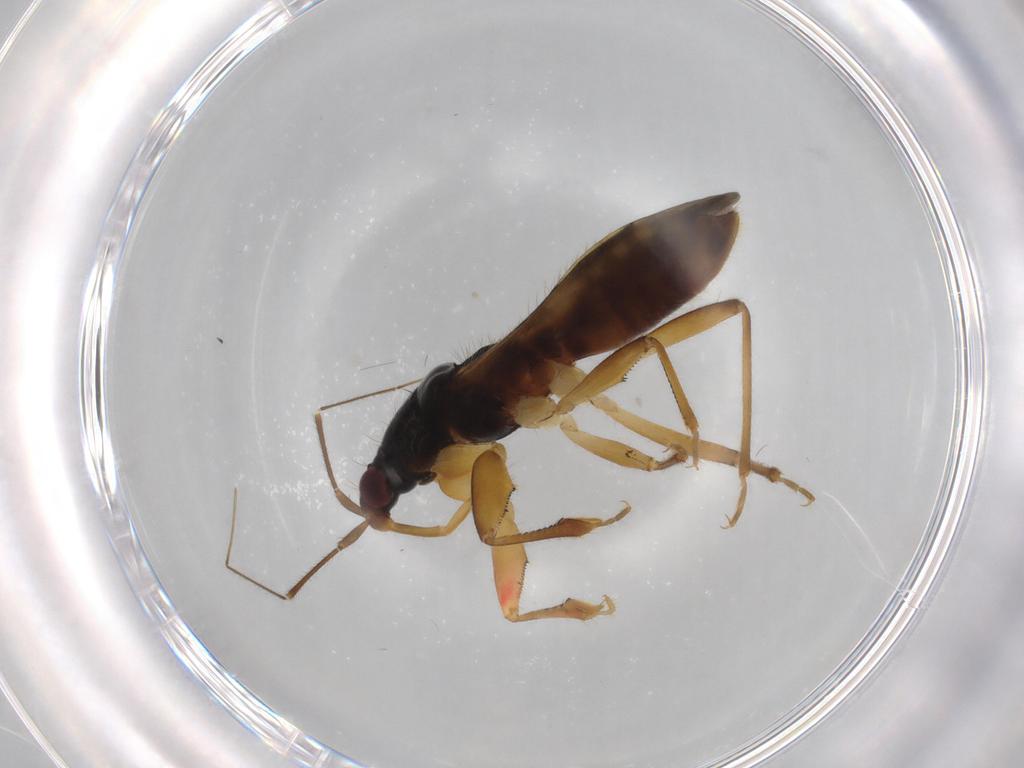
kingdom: Animalia
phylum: Arthropoda
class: Insecta
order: Hemiptera
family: Nabidae
